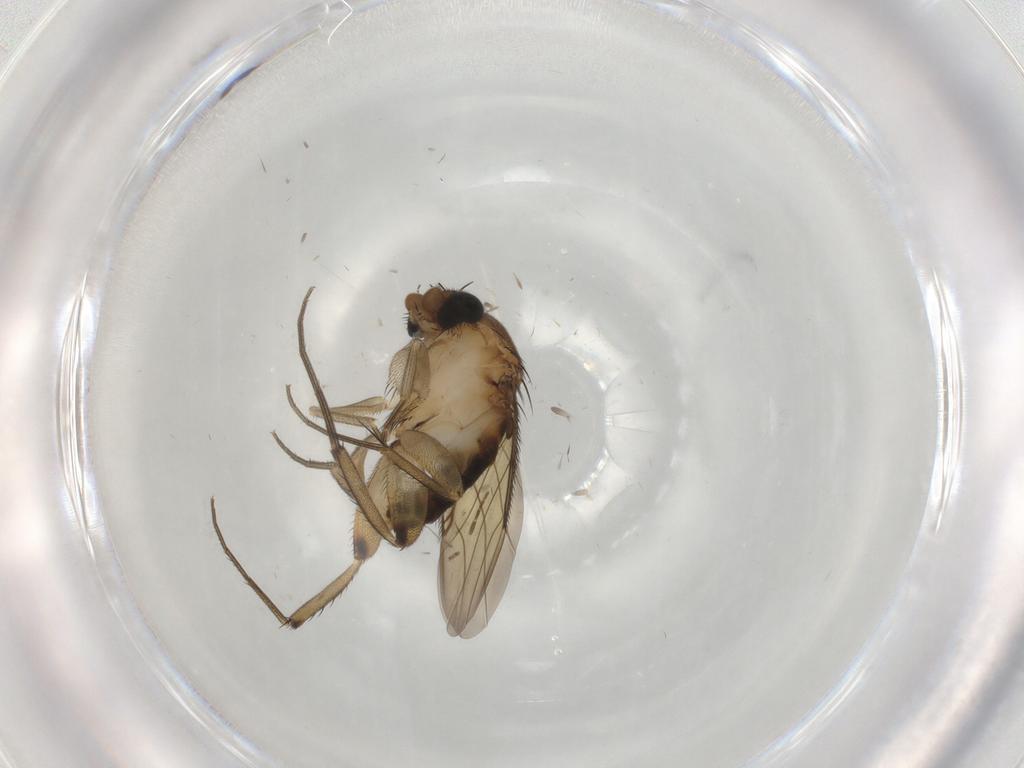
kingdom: Animalia
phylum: Arthropoda
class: Insecta
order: Diptera
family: Phoridae
